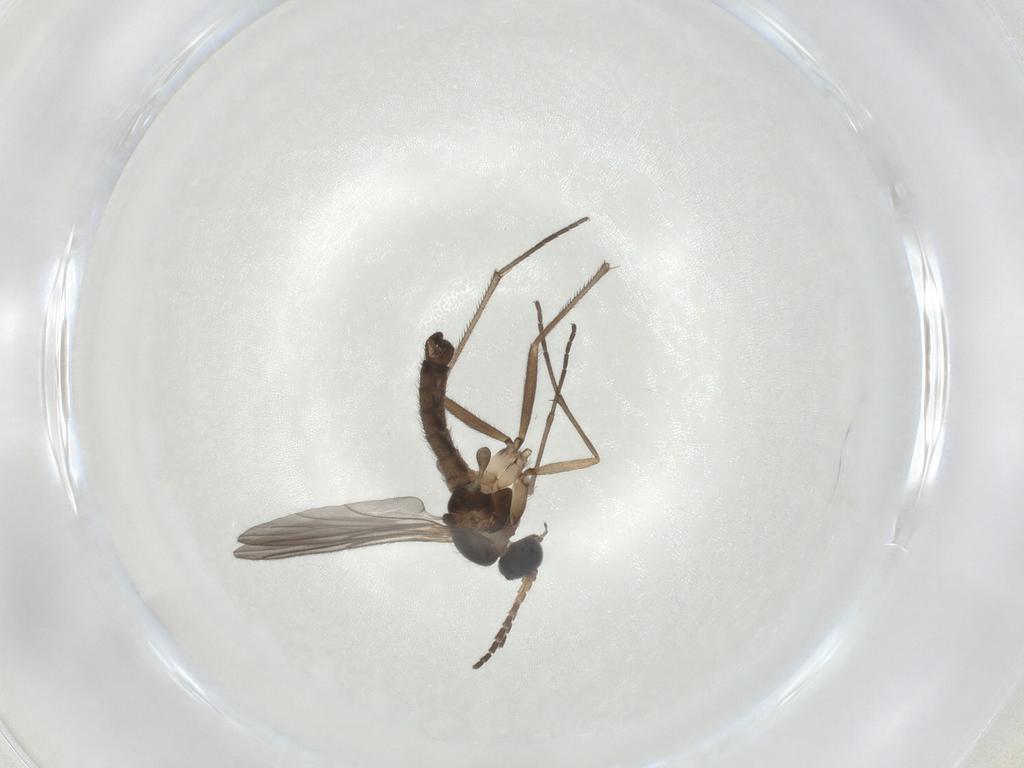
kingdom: Animalia
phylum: Arthropoda
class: Insecta
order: Diptera
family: Sciaridae
